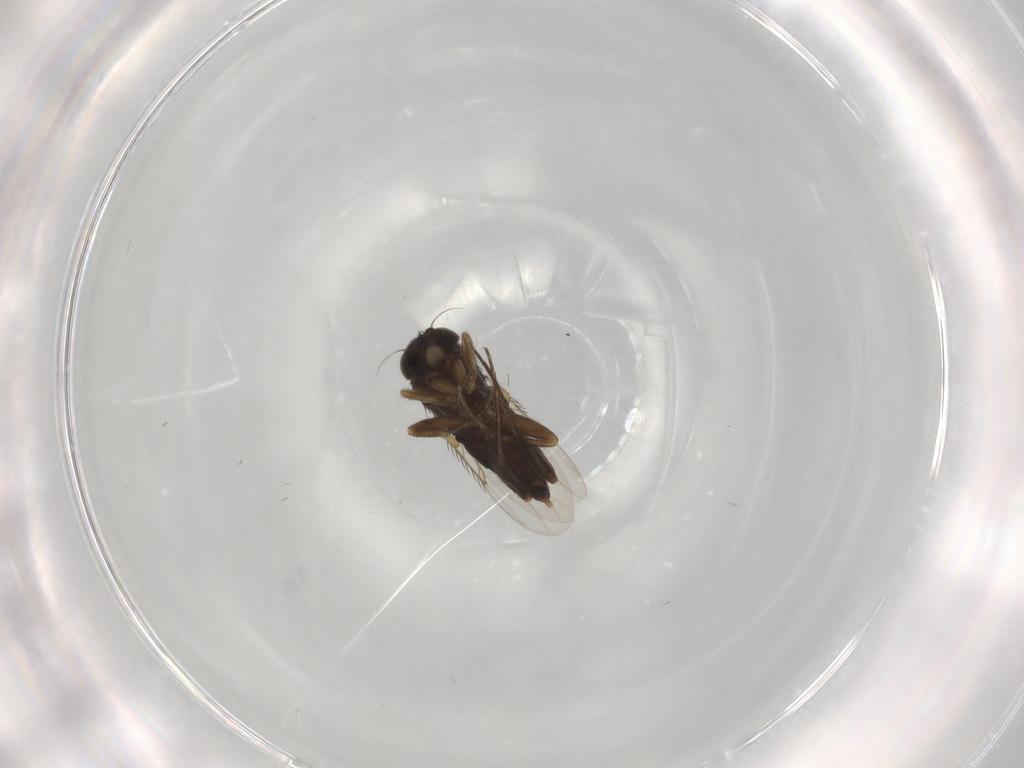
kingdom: Animalia
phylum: Arthropoda
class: Insecta
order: Diptera
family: Phoridae
